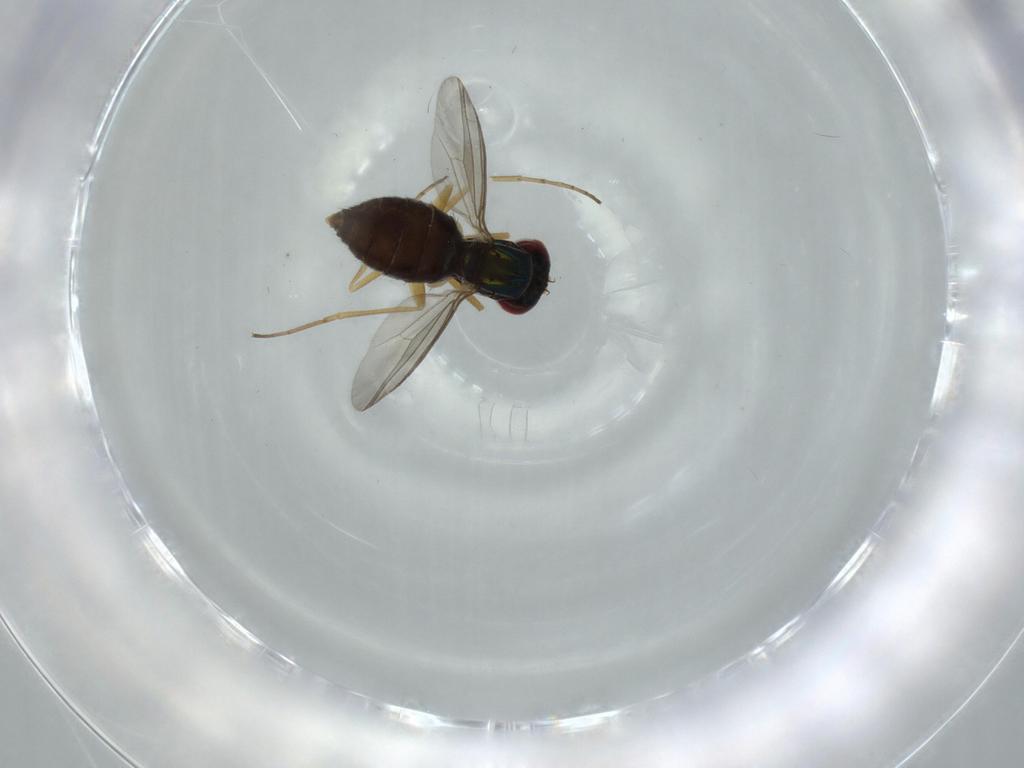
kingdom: Animalia
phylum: Arthropoda
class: Insecta
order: Diptera
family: Dolichopodidae
